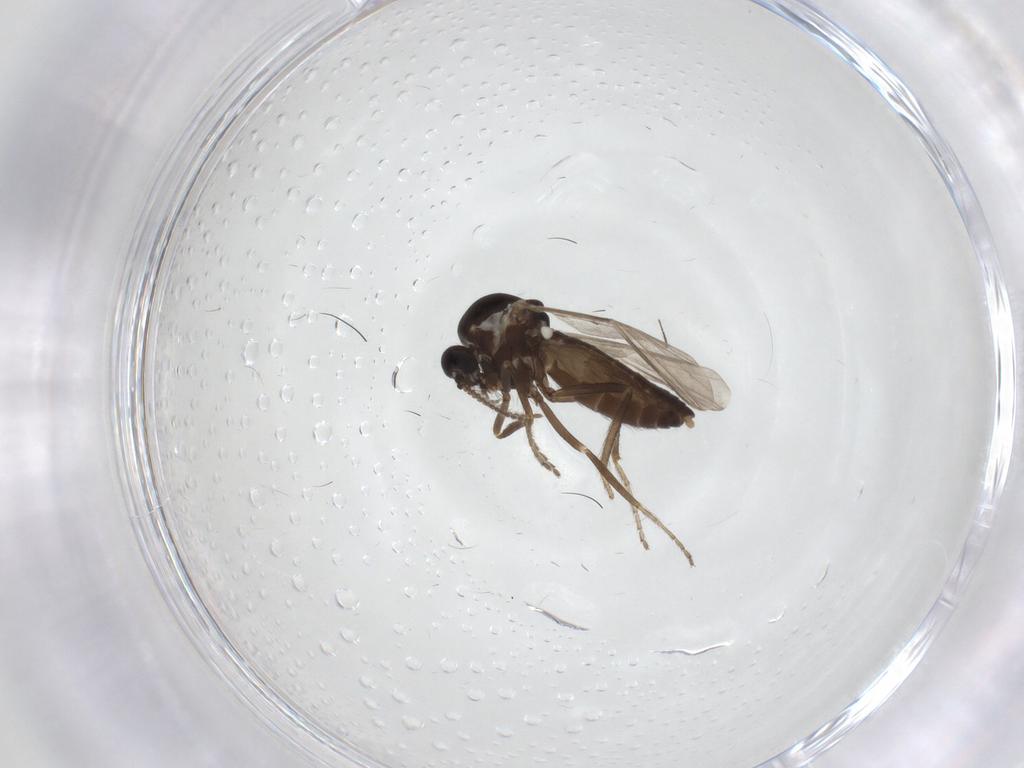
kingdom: Animalia
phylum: Arthropoda
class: Insecta
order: Diptera
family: Ceratopogonidae
